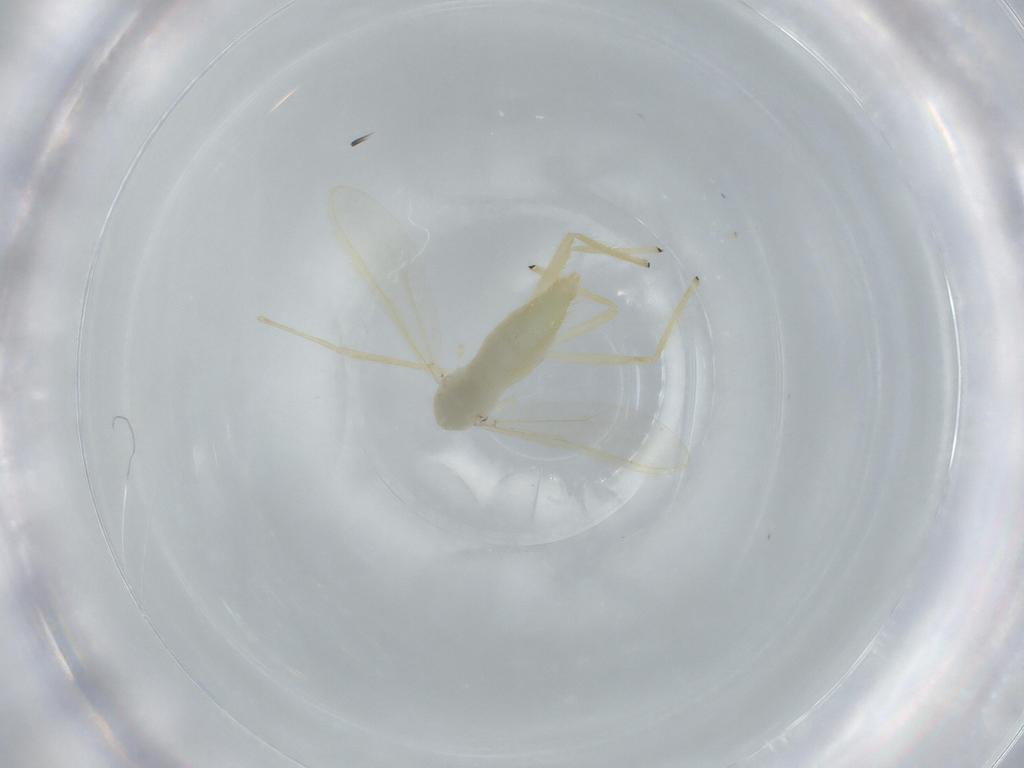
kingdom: Animalia
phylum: Arthropoda
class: Insecta
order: Diptera
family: Chironomidae
